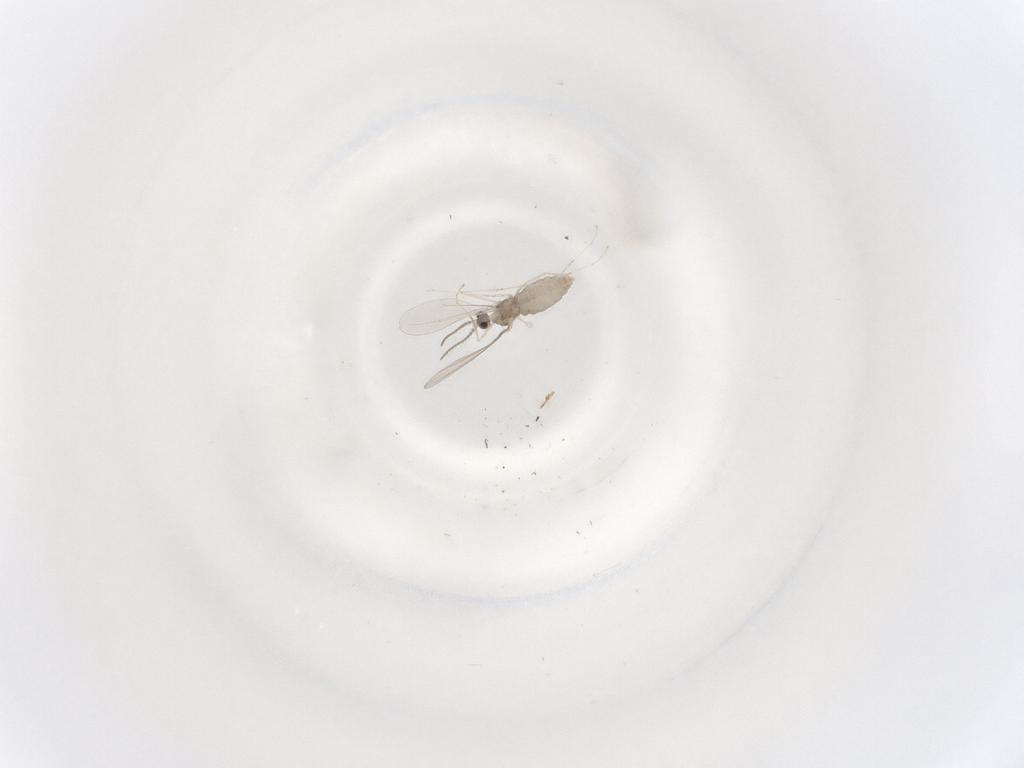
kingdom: Animalia
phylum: Arthropoda
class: Insecta
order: Diptera
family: Cecidomyiidae
